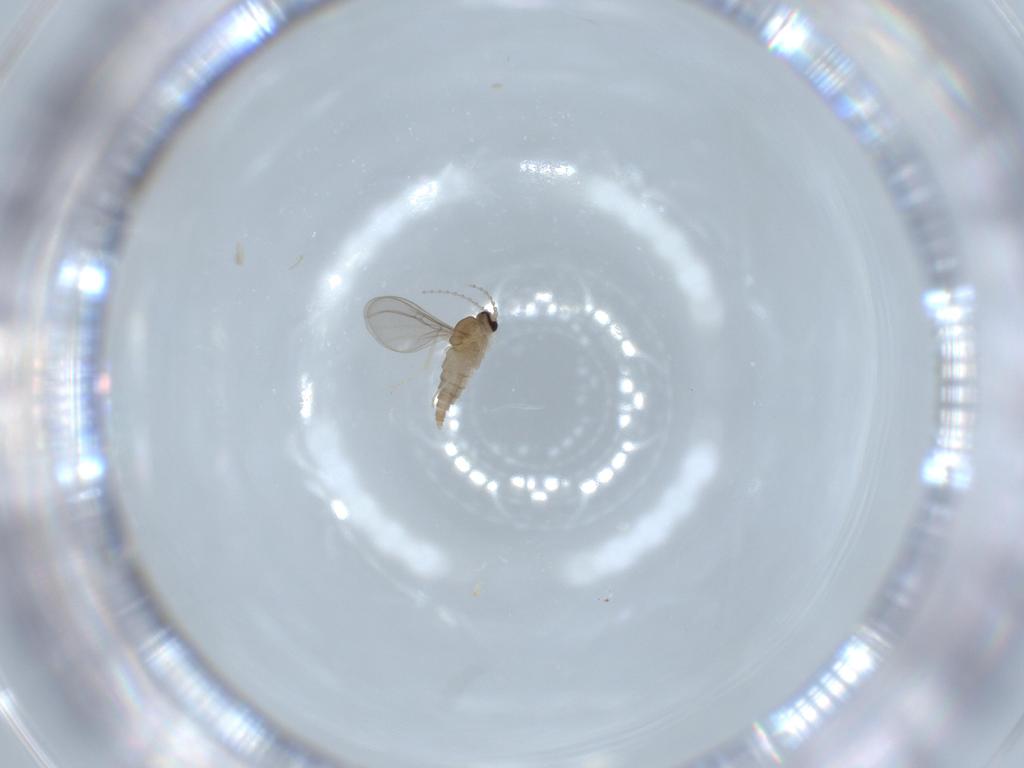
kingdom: Animalia
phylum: Arthropoda
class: Insecta
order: Diptera
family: Cecidomyiidae
